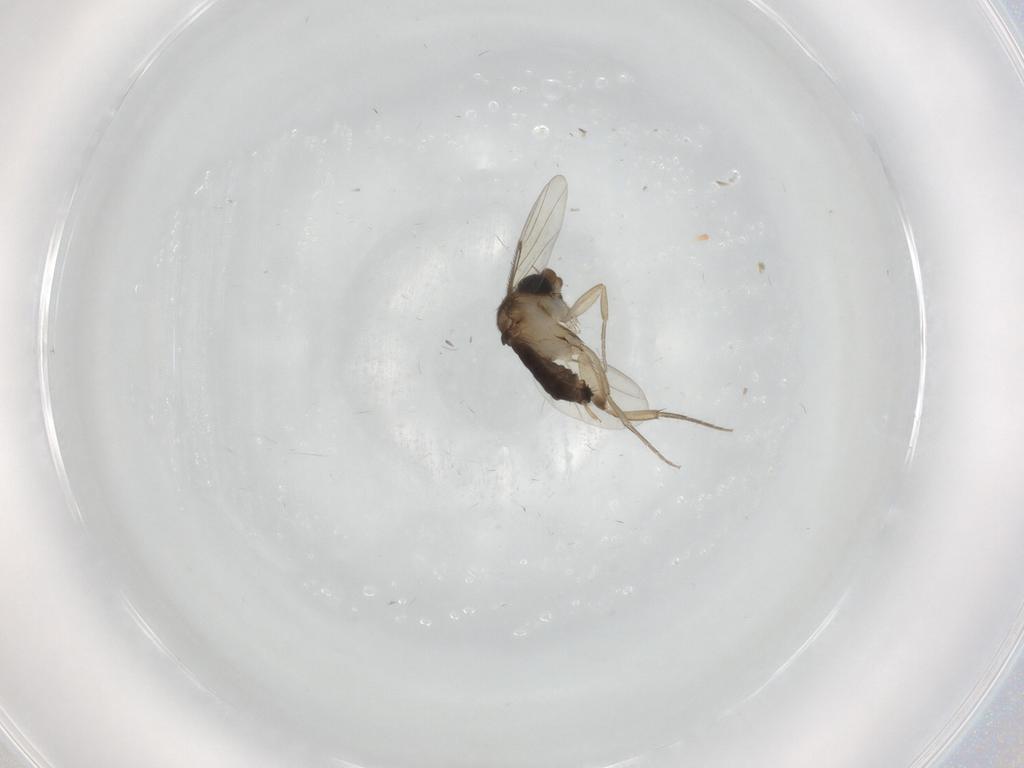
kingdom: Animalia
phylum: Arthropoda
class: Insecta
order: Diptera
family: Phoridae
